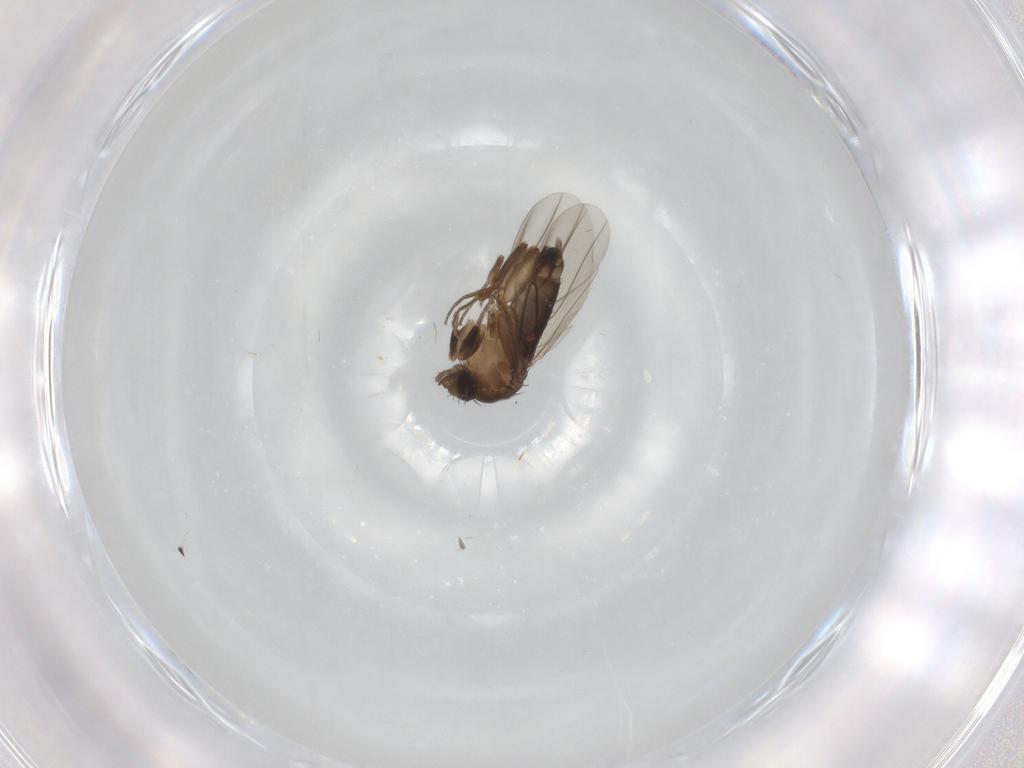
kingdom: Animalia
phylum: Arthropoda
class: Insecta
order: Diptera
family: Phoridae
